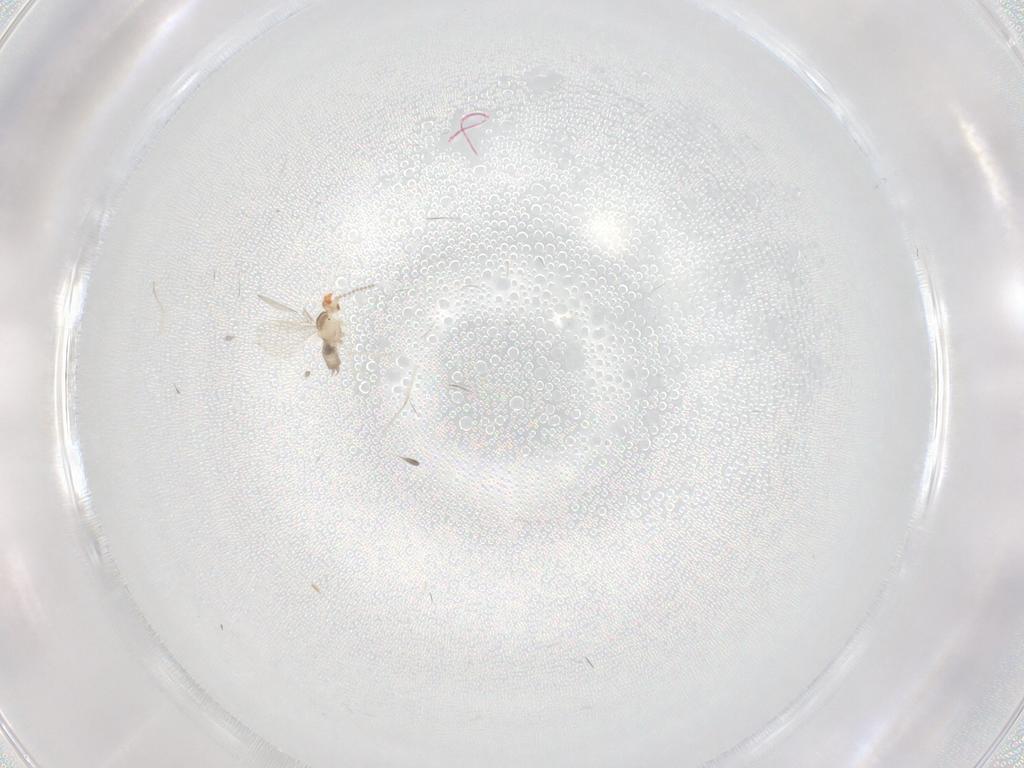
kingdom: Animalia
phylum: Arthropoda
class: Insecta
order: Diptera
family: Cecidomyiidae
